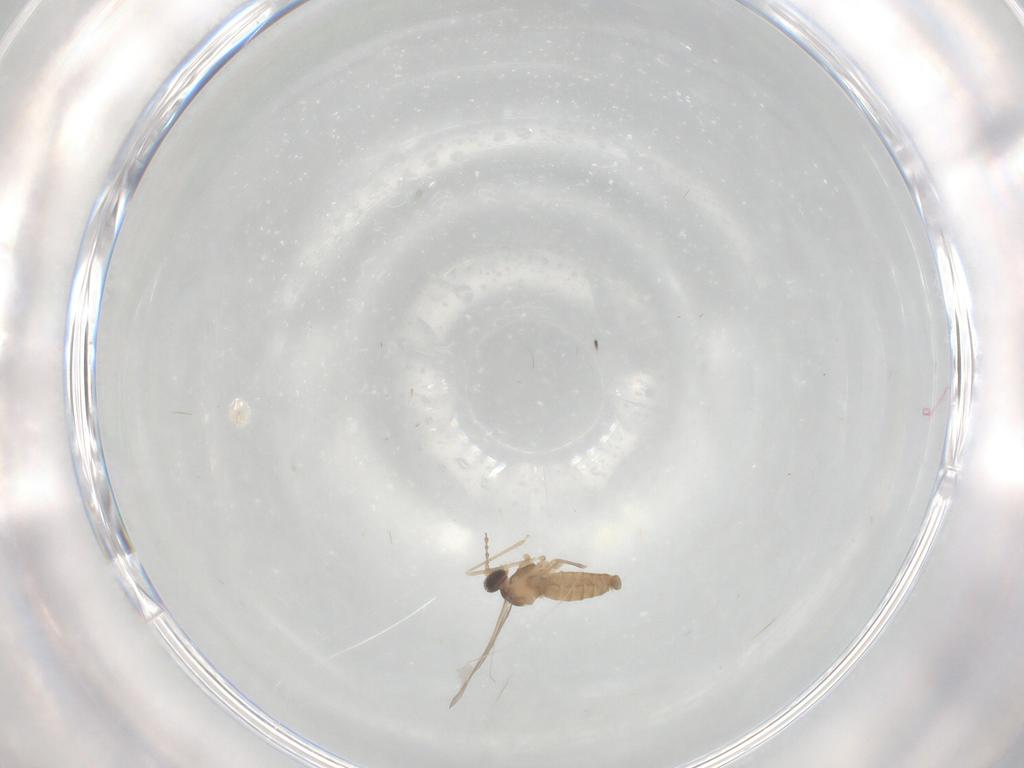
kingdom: Animalia
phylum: Arthropoda
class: Insecta
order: Diptera
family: Cecidomyiidae
